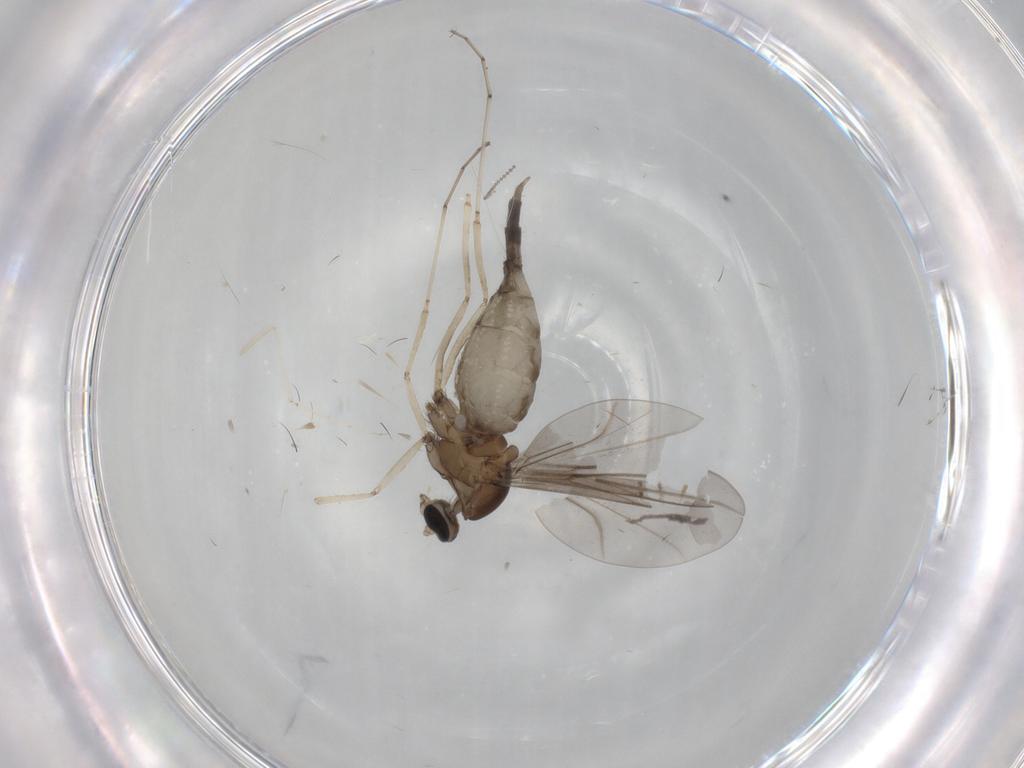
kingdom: Animalia
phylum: Arthropoda
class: Insecta
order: Diptera
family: Cecidomyiidae
